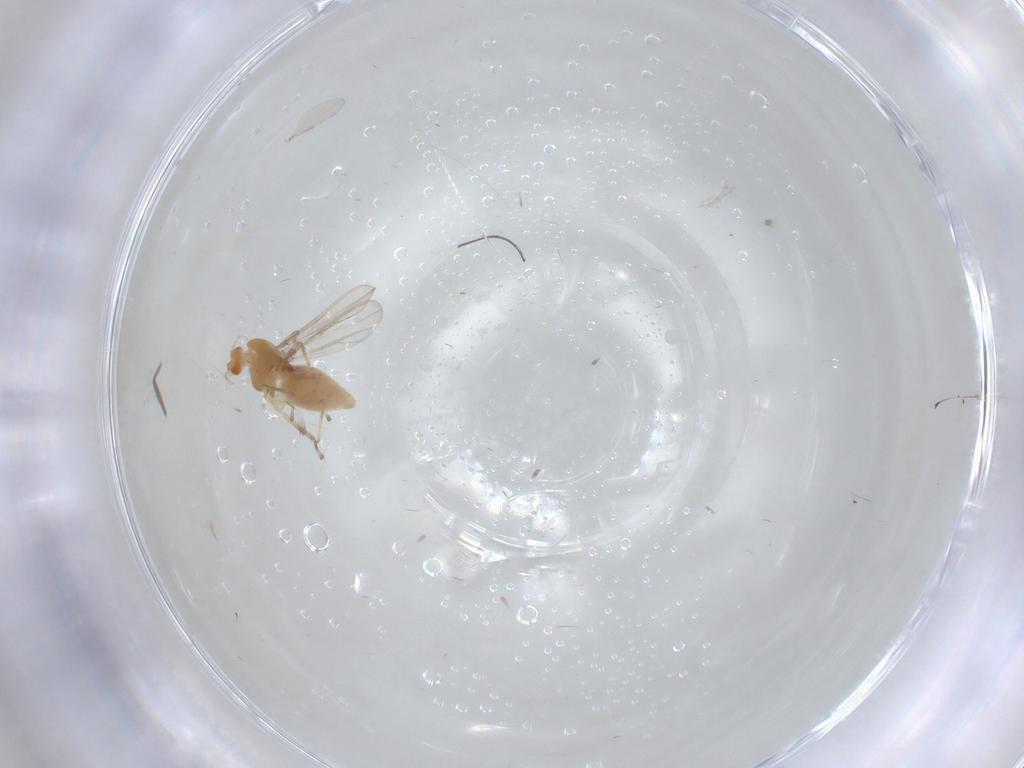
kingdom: Animalia
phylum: Arthropoda
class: Insecta
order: Diptera
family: Chironomidae
